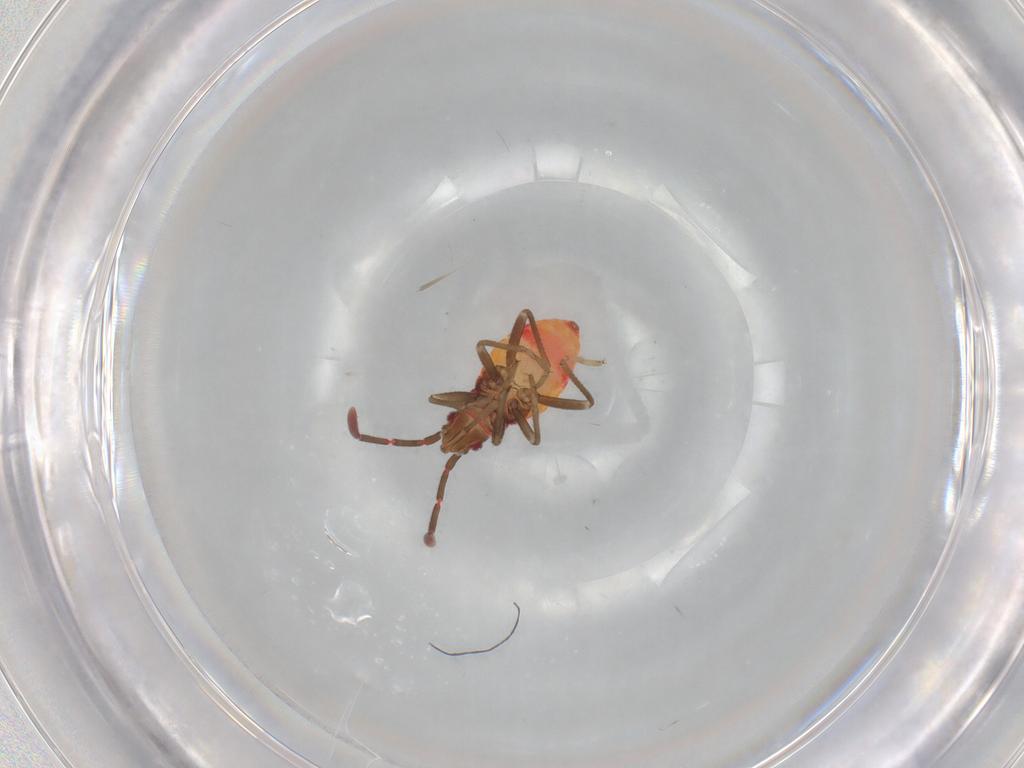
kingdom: Animalia
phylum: Arthropoda
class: Insecta
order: Hemiptera
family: Rhyparochromidae
